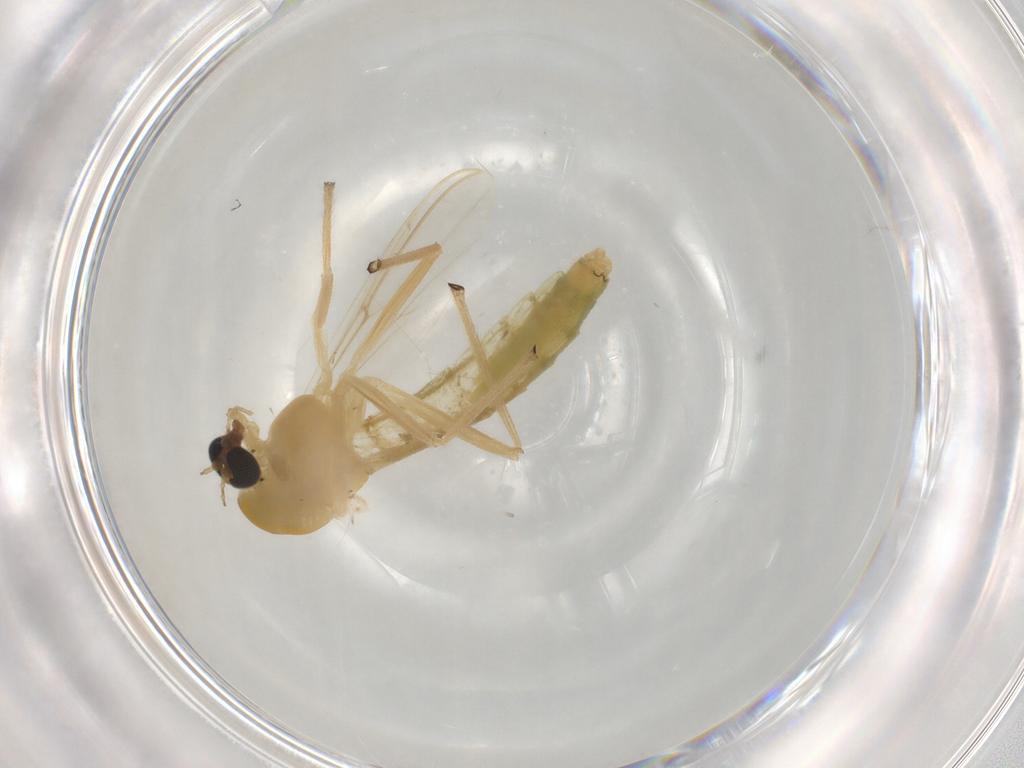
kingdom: Animalia
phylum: Arthropoda
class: Insecta
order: Diptera
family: Chironomidae
